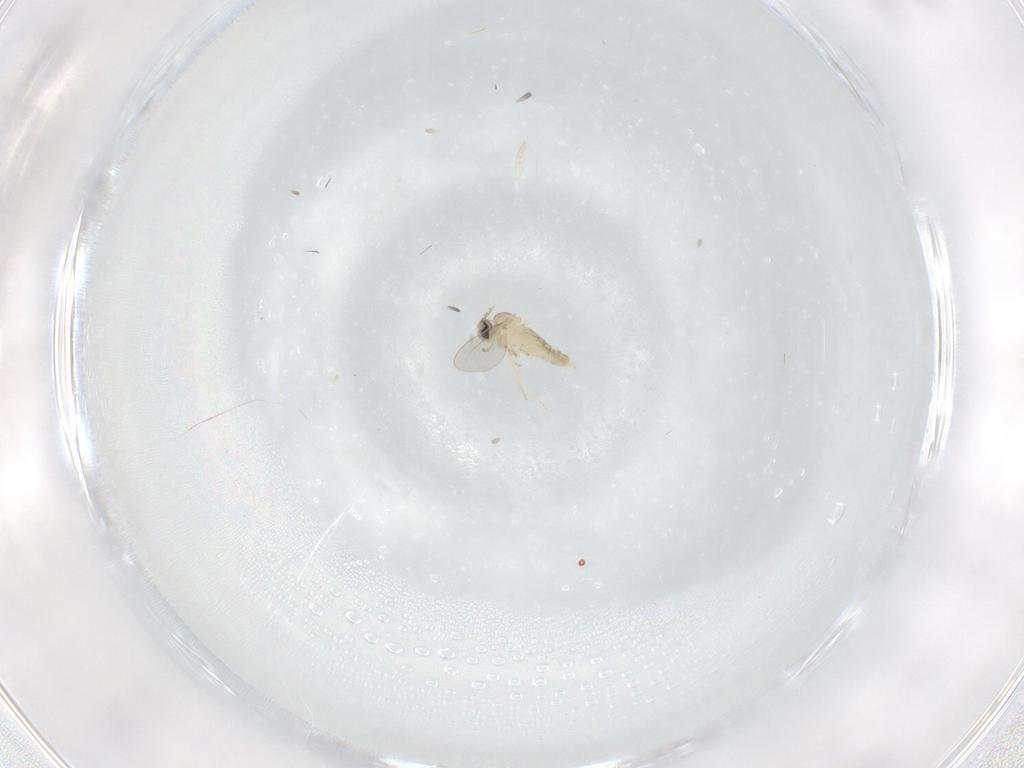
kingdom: Animalia
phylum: Arthropoda
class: Insecta
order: Diptera
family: Cecidomyiidae
